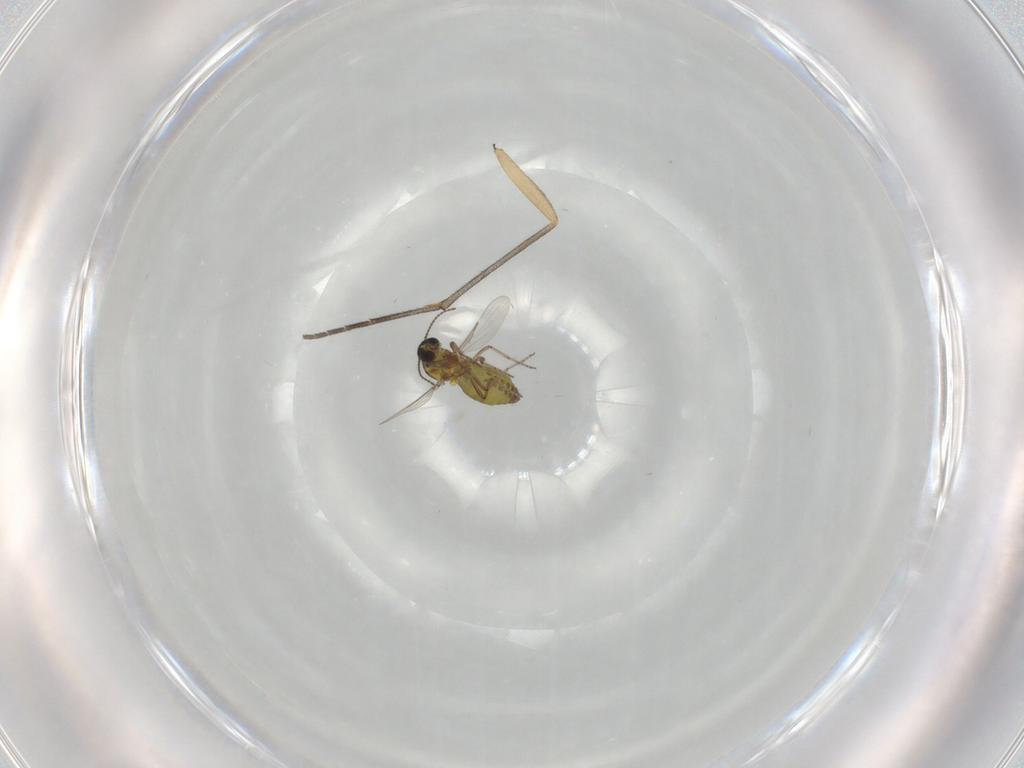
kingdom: Animalia
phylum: Arthropoda
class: Insecta
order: Diptera
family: Ceratopogonidae
